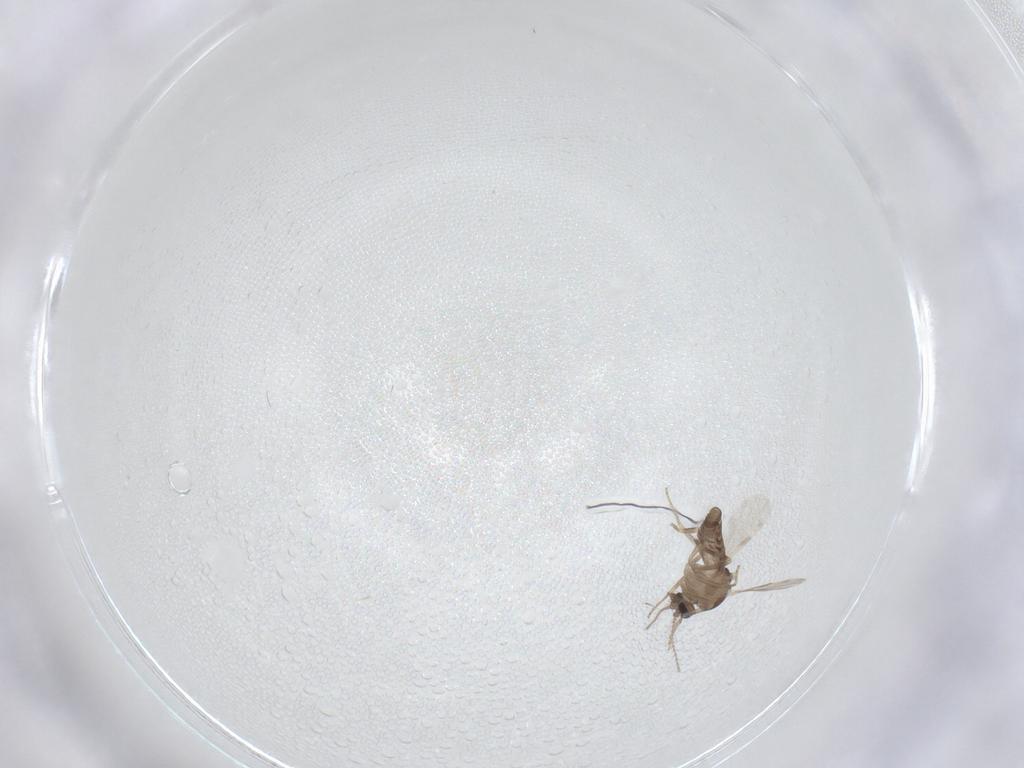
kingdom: Animalia
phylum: Arthropoda
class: Insecta
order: Diptera
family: Ceratopogonidae
